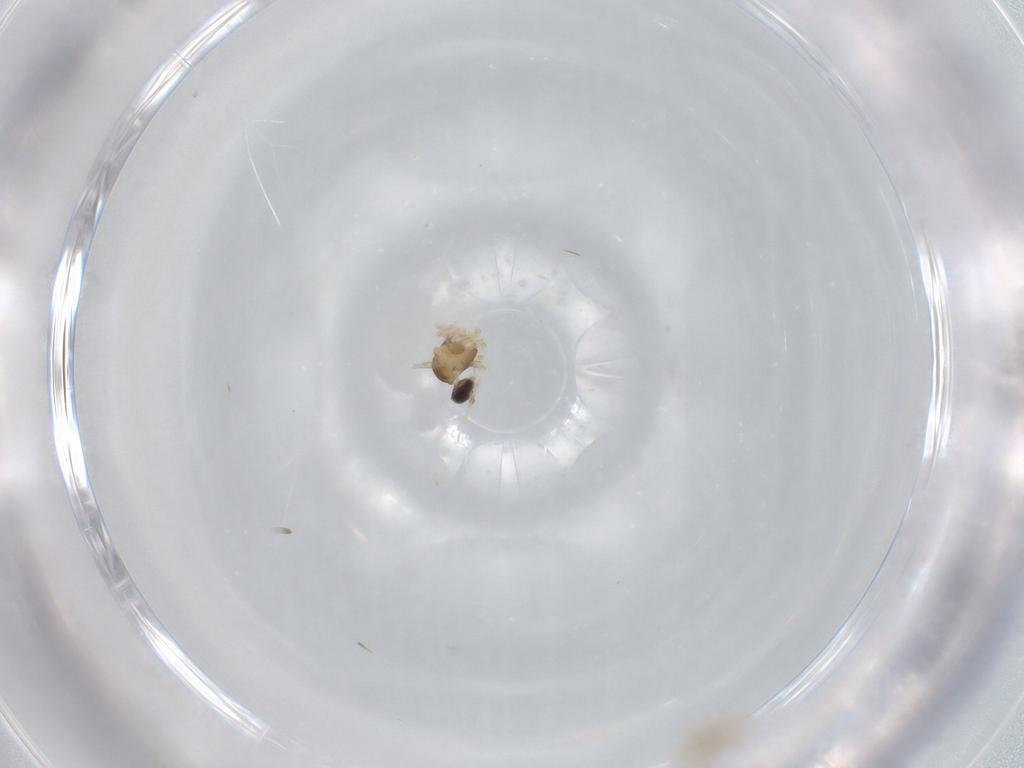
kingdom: Animalia
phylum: Arthropoda
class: Insecta
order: Diptera
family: Cecidomyiidae
